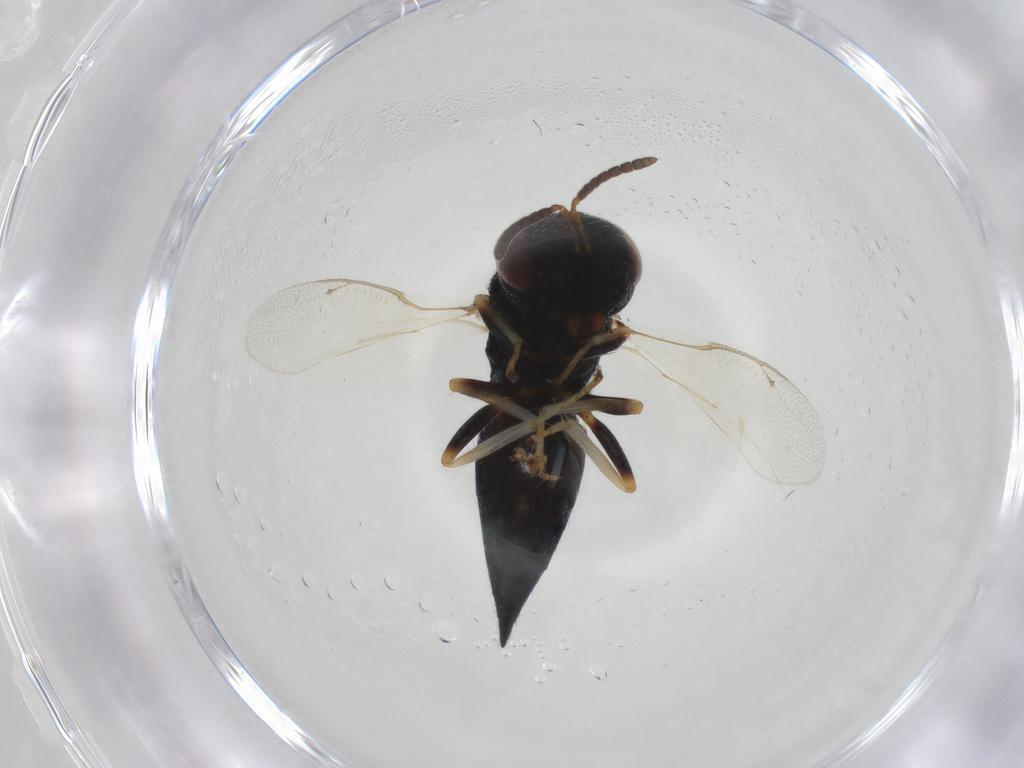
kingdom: Animalia
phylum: Arthropoda
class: Insecta
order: Hymenoptera
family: Pteromalidae
